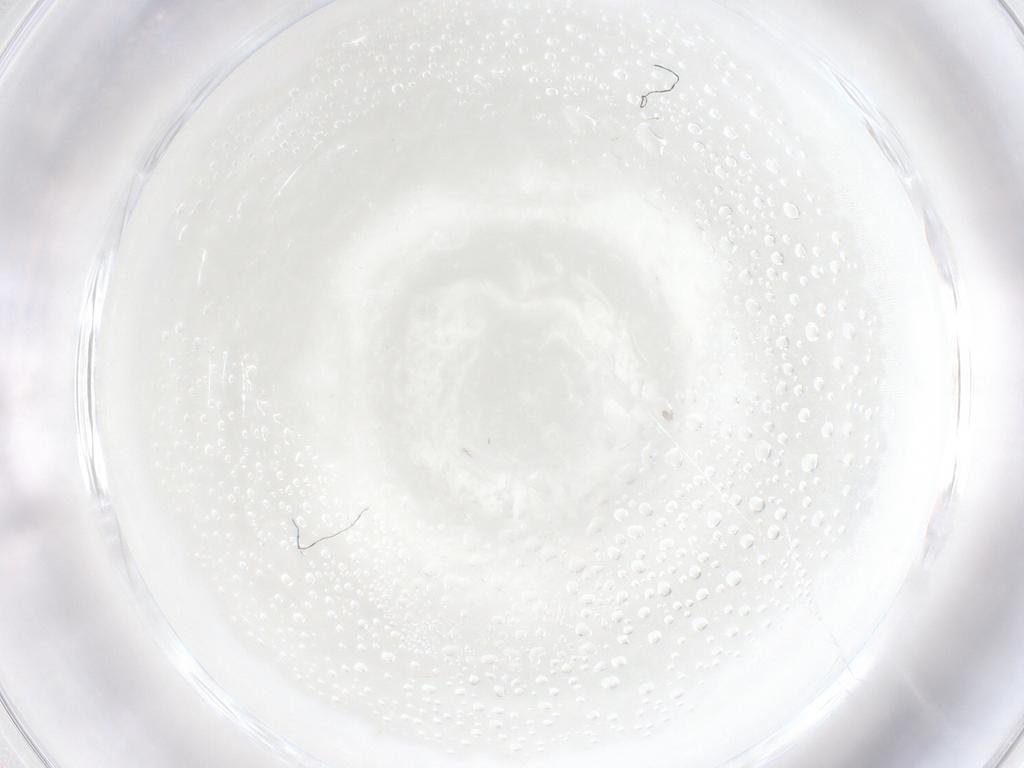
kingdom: Animalia
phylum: Arthropoda
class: Insecta
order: Diptera
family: Cecidomyiidae
